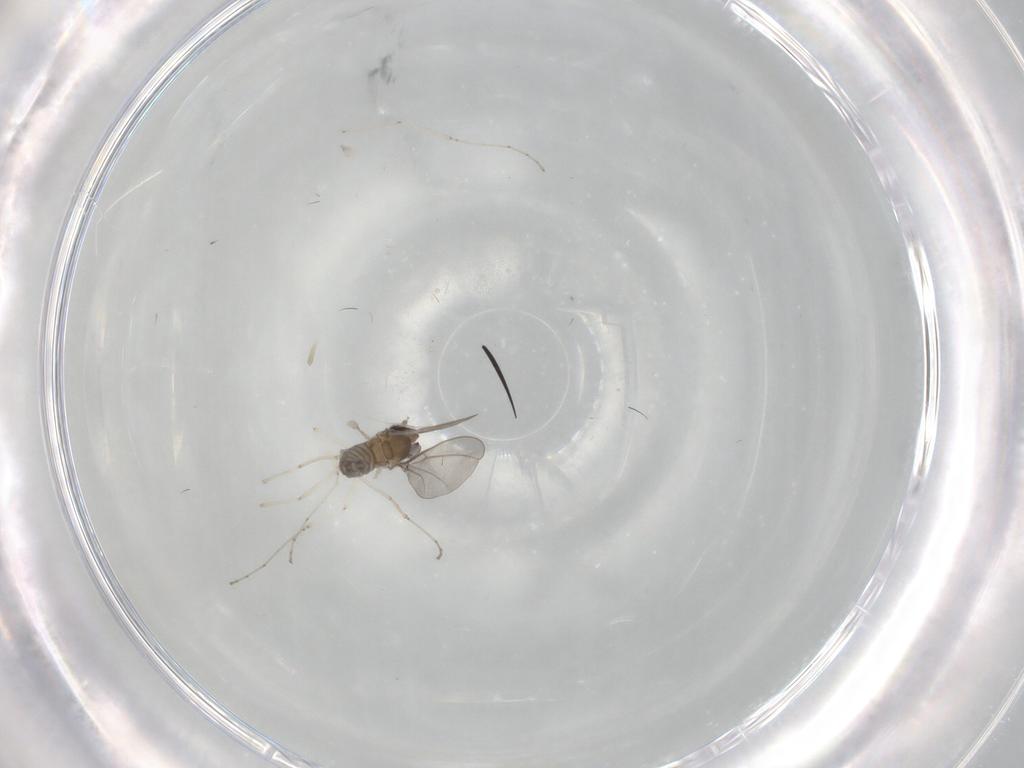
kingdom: Animalia
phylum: Arthropoda
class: Insecta
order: Diptera
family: Cecidomyiidae
